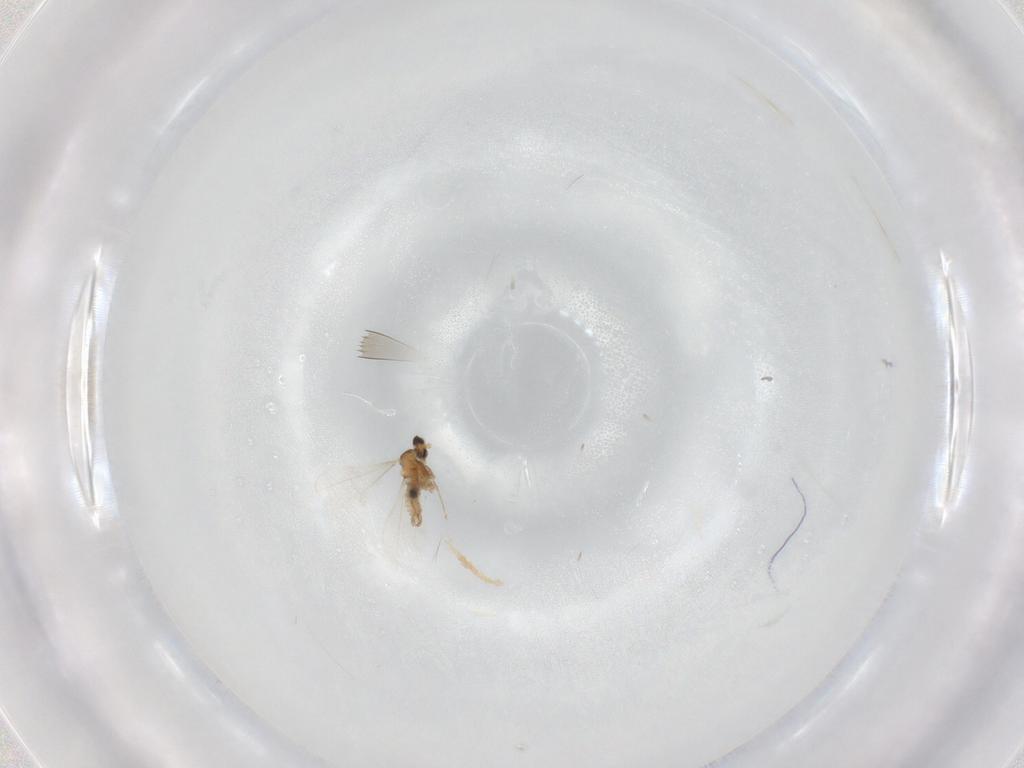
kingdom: Animalia
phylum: Arthropoda
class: Insecta
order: Diptera
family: Cecidomyiidae
